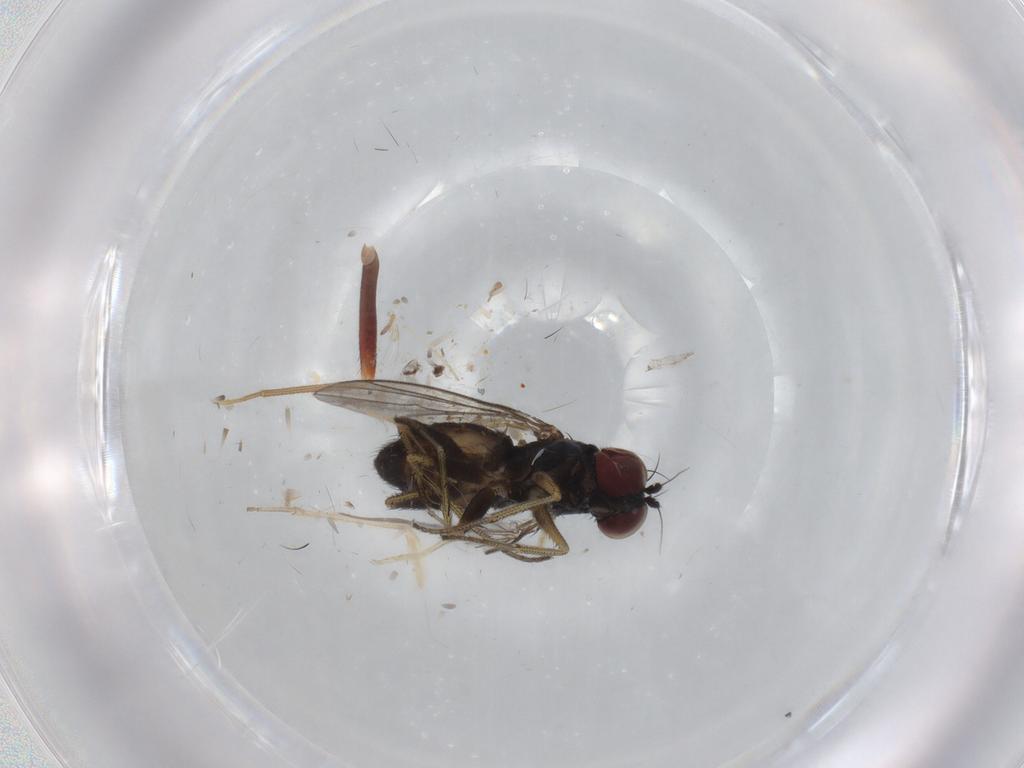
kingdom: Animalia
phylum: Arthropoda
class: Insecta
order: Diptera
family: Cecidomyiidae
